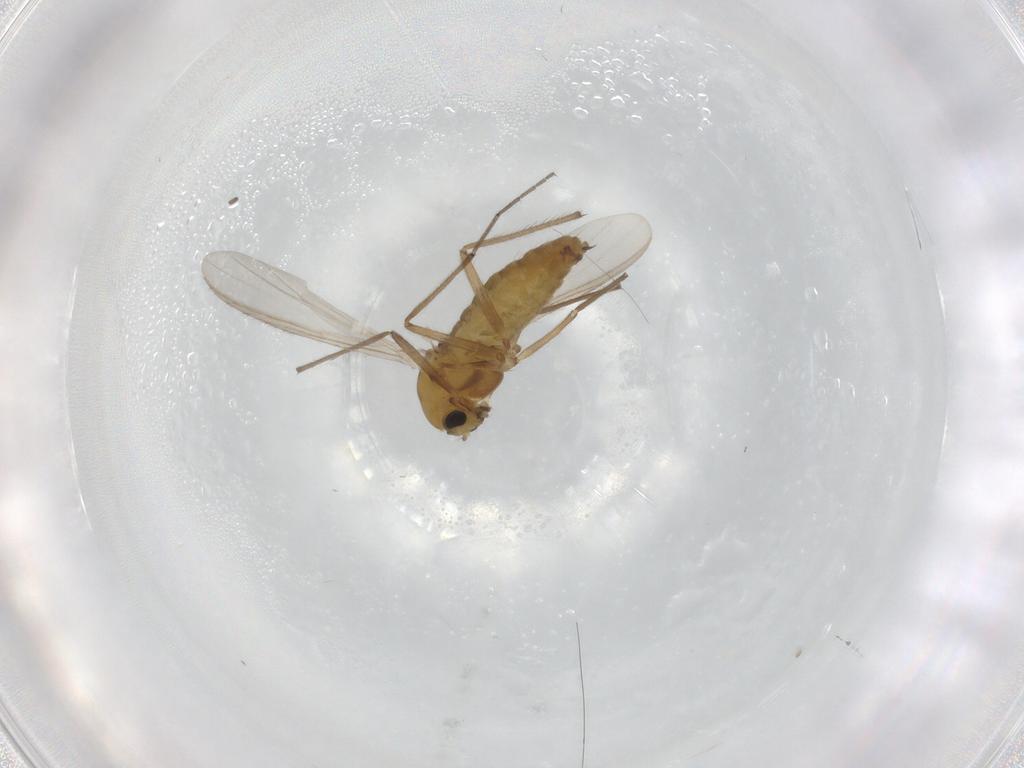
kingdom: Animalia
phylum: Arthropoda
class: Insecta
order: Diptera
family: Chironomidae
